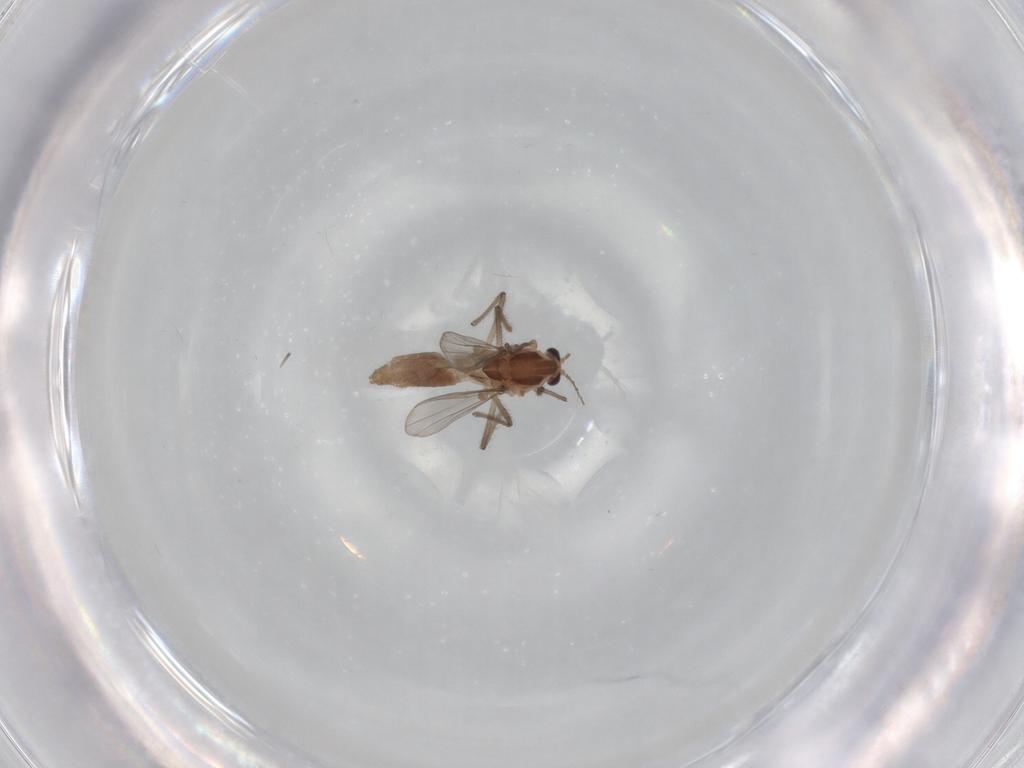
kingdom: Animalia
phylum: Arthropoda
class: Insecta
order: Diptera
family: Chironomidae
